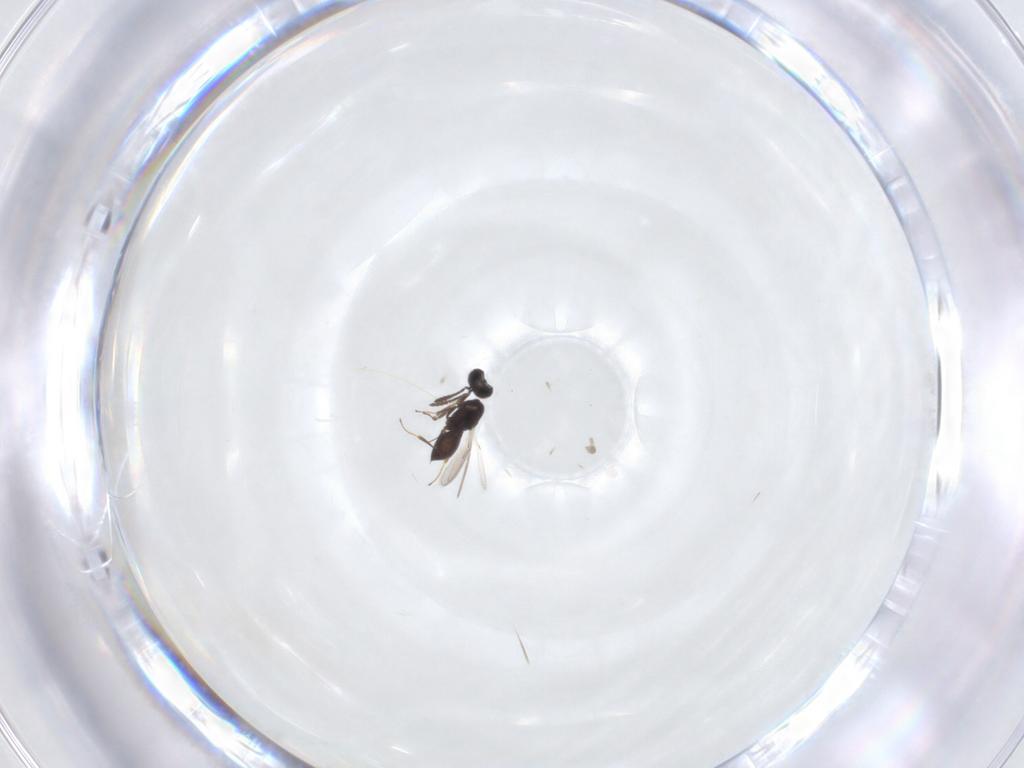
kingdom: Animalia
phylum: Arthropoda
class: Insecta
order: Hymenoptera
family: Scelionidae
